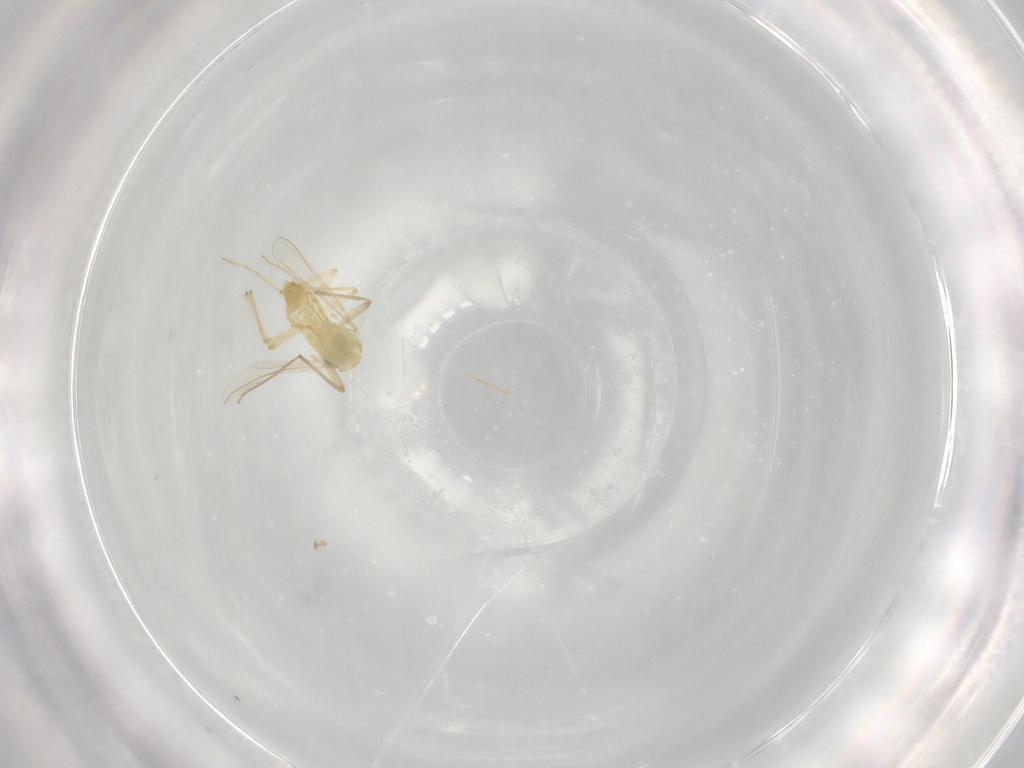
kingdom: Animalia
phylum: Arthropoda
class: Insecta
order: Diptera
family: Chironomidae
